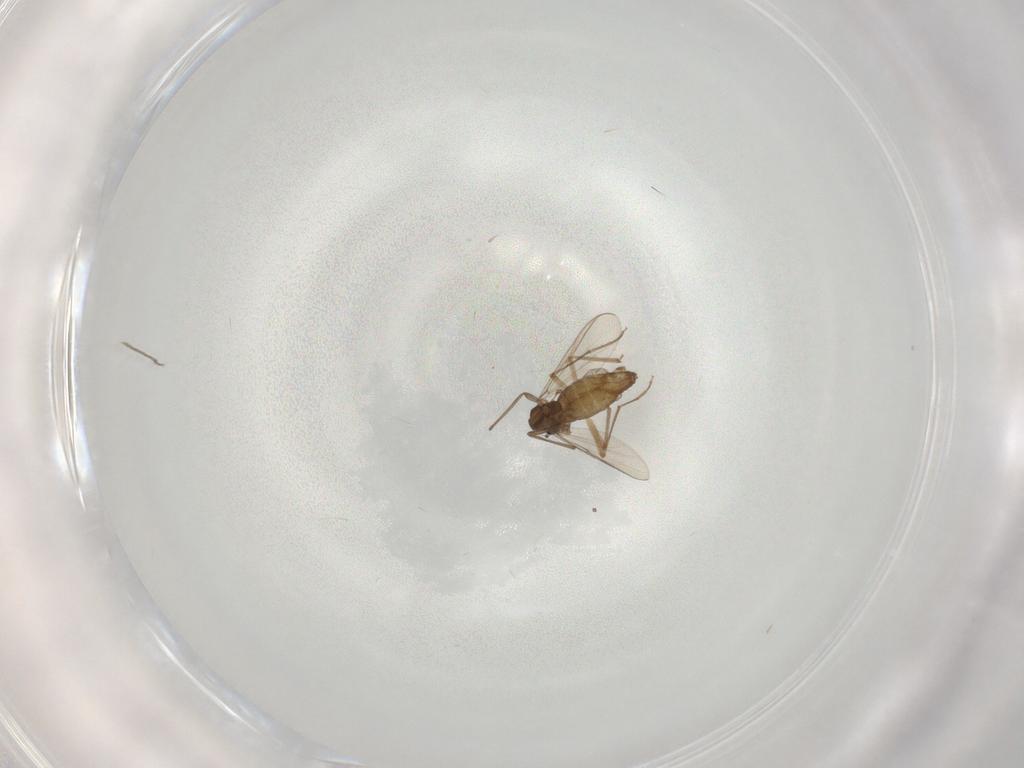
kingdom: Animalia
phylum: Arthropoda
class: Insecta
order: Diptera
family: Chironomidae
